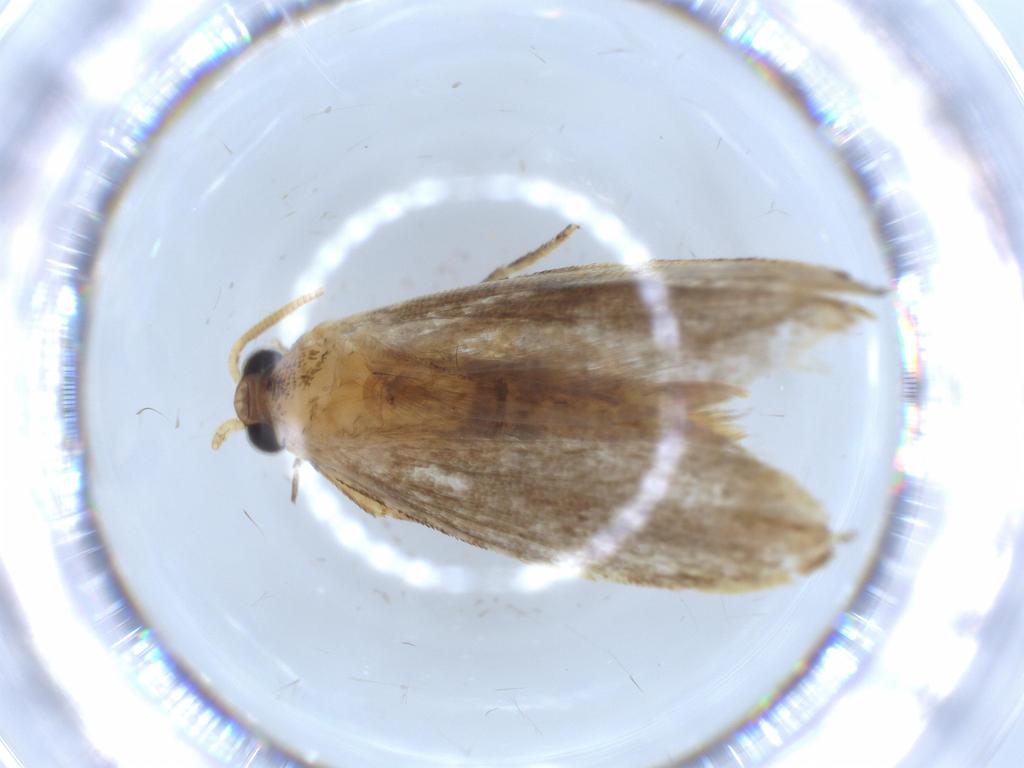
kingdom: Animalia
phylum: Arthropoda
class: Insecta
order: Lepidoptera
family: Tineidae
